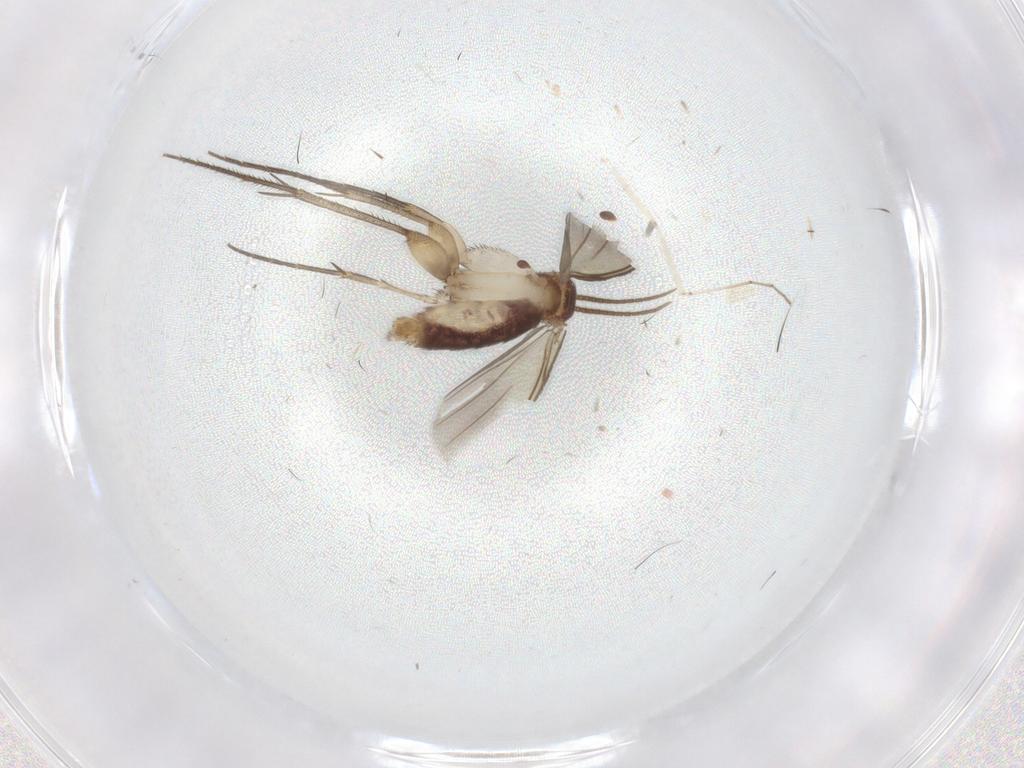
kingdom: Animalia
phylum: Arthropoda
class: Insecta
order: Diptera
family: Mycetophilidae
